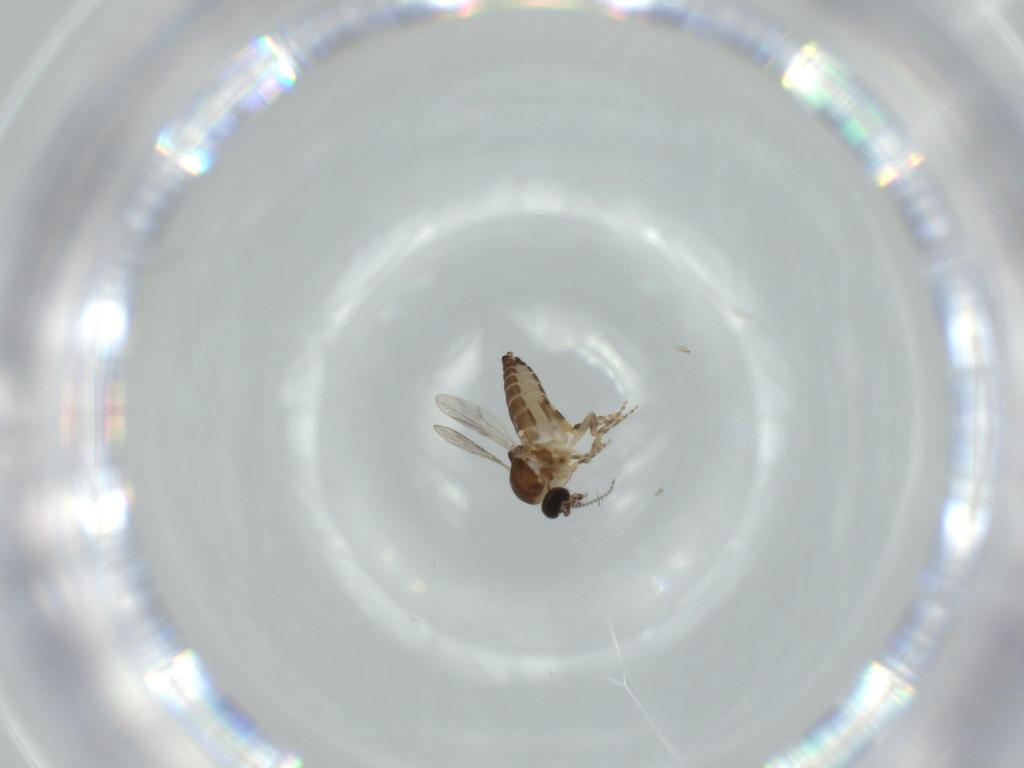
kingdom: Animalia
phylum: Arthropoda
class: Insecta
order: Diptera
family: Ceratopogonidae
